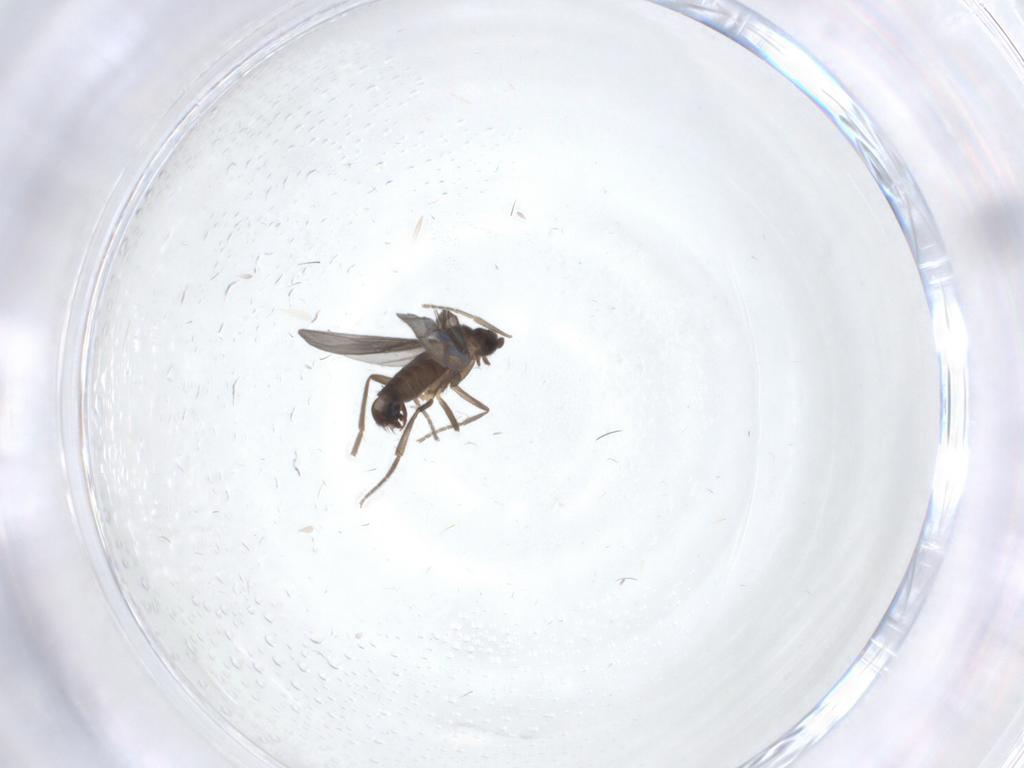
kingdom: Animalia
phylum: Arthropoda
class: Insecta
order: Diptera
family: Phoridae
